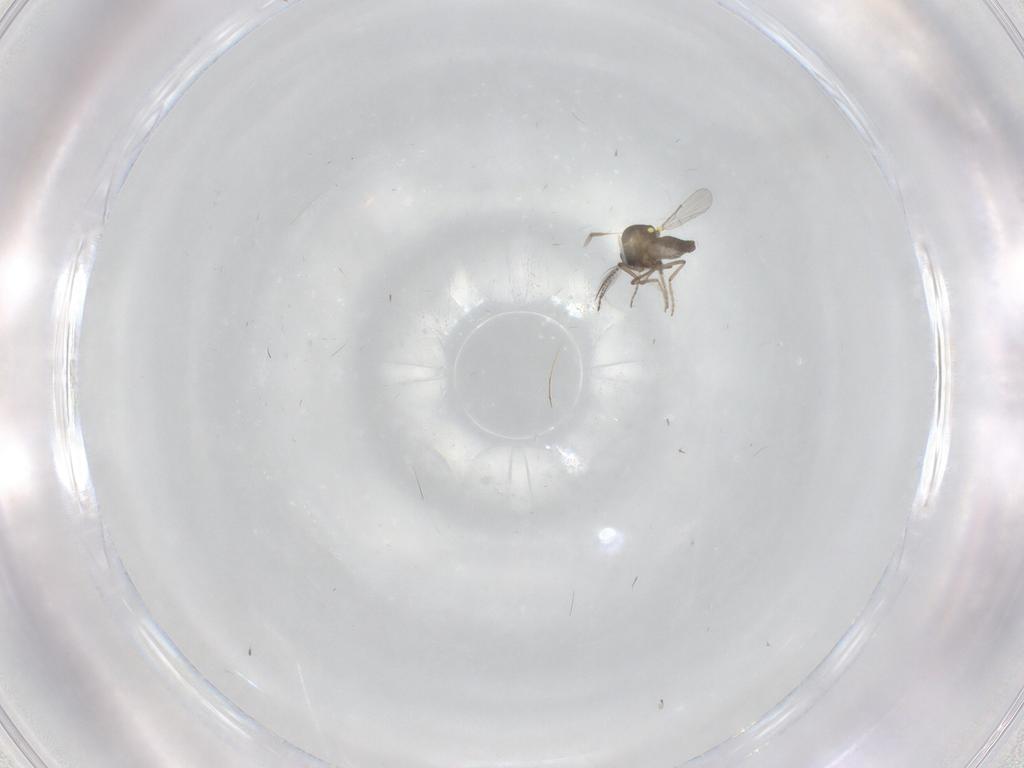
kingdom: Animalia
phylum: Arthropoda
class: Insecta
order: Diptera
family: Ceratopogonidae
